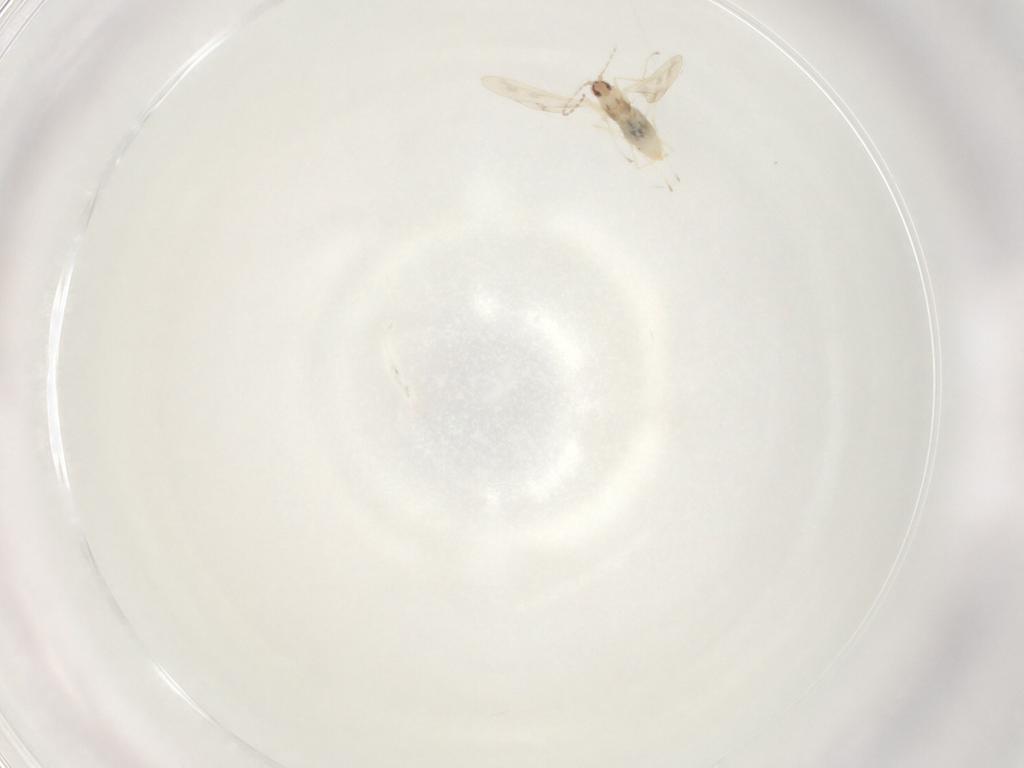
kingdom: Animalia
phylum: Arthropoda
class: Insecta
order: Diptera
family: Cecidomyiidae
